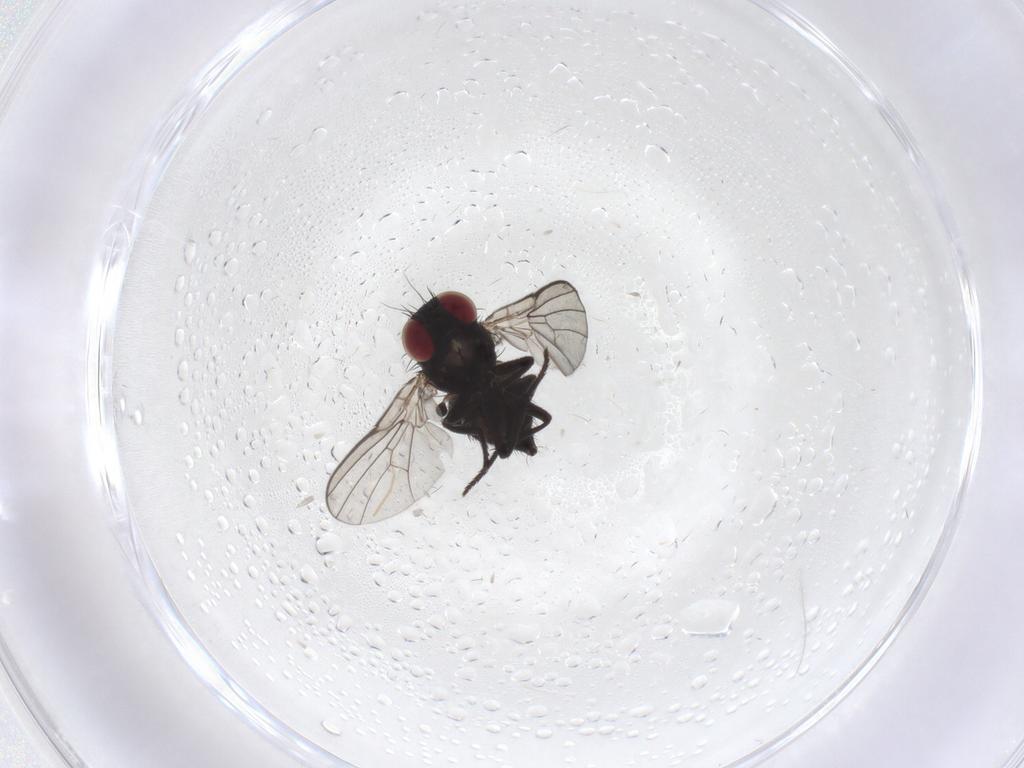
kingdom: Animalia
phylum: Arthropoda
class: Insecta
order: Diptera
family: Agromyzidae
